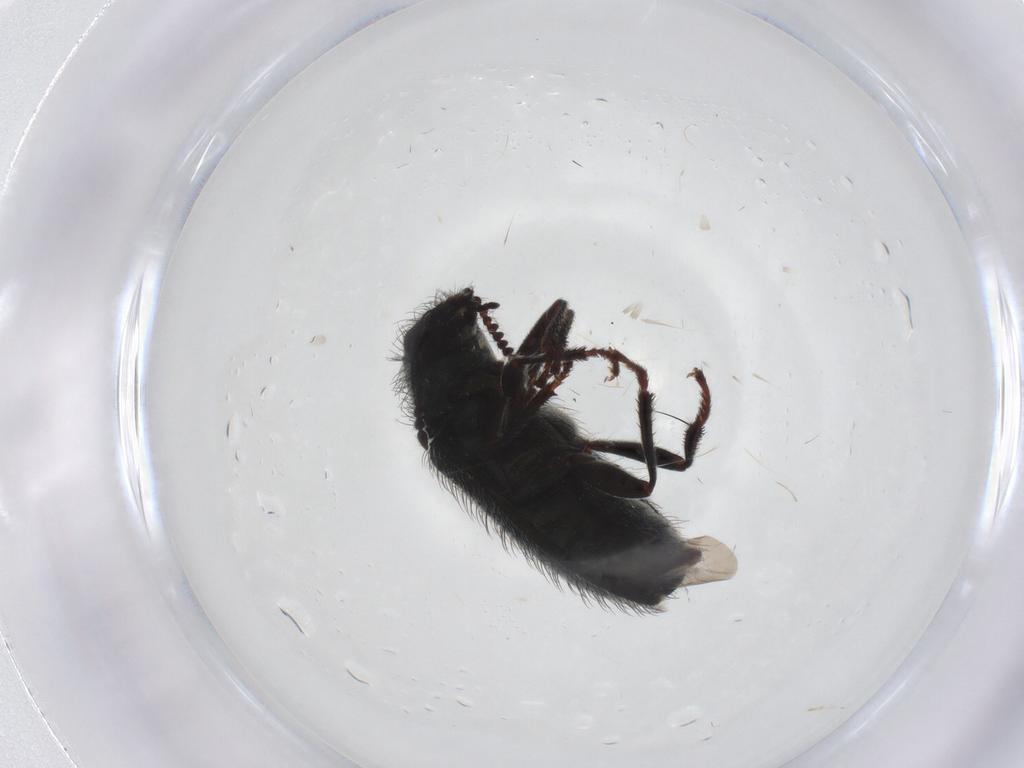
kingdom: Animalia
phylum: Arthropoda
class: Insecta
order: Coleoptera
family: Melyridae
